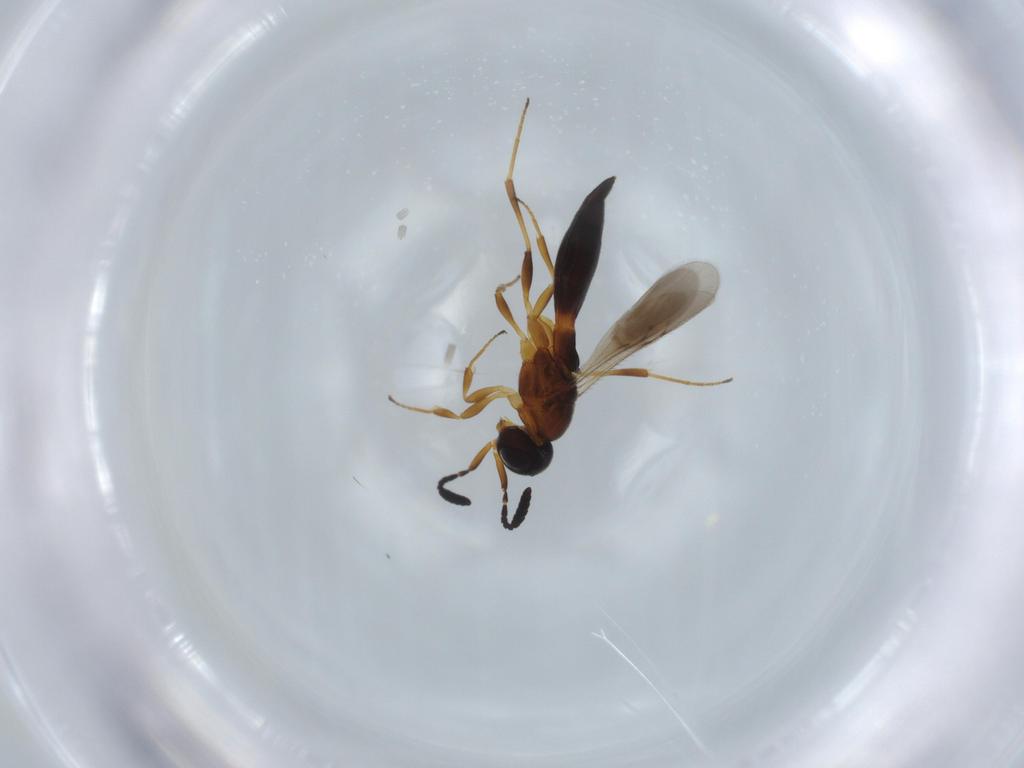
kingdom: Animalia
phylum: Arthropoda
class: Insecta
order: Hymenoptera
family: Scelionidae
